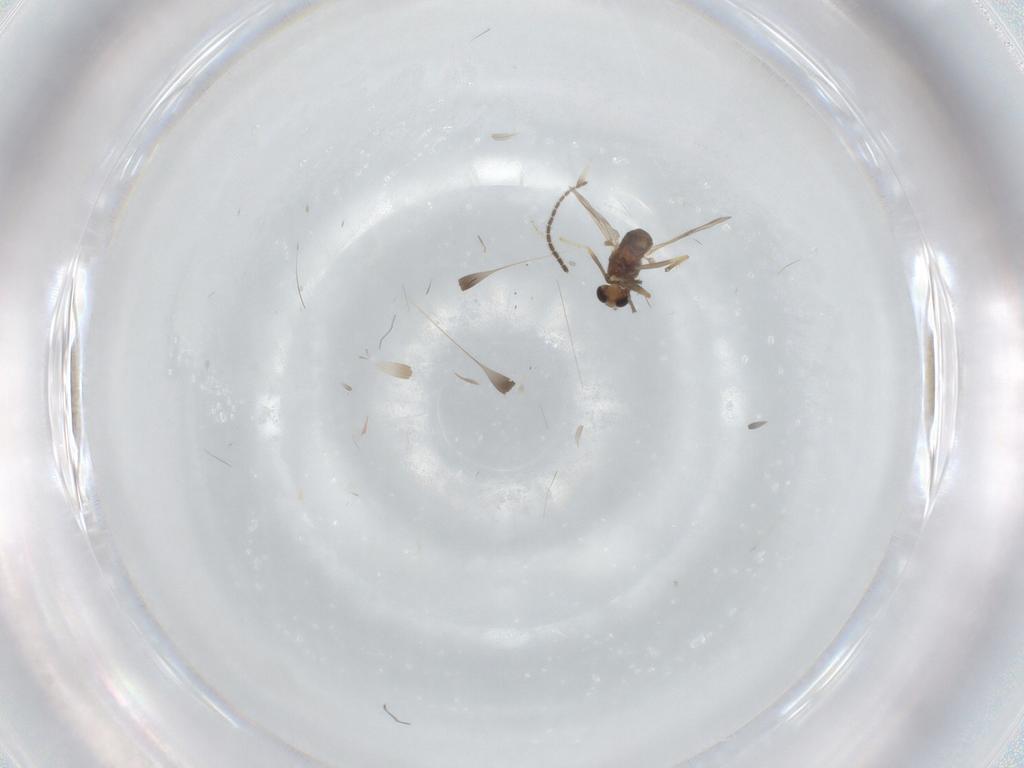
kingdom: Animalia
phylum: Arthropoda
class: Insecta
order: Diptera
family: Chironomidae
